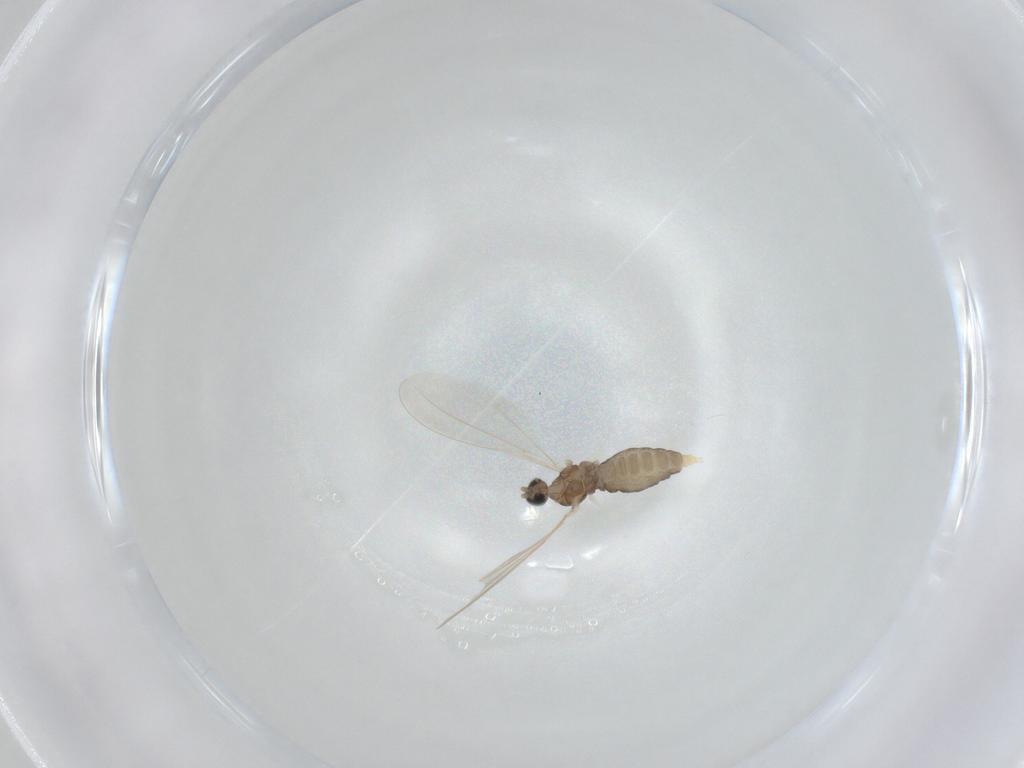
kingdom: Animalia
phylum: Arthropoda
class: Insecta
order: Diptera
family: Cecidomyiidae
